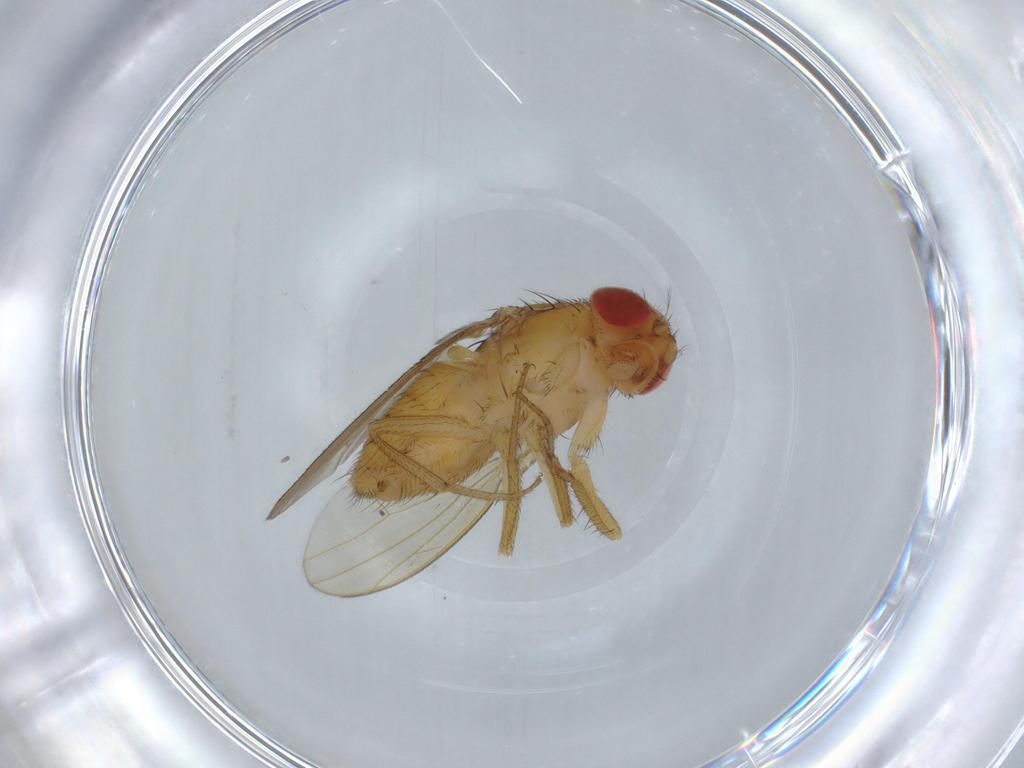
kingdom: Animalia
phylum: Arthropoda
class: Insecta
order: Diptera
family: Drosophilidae
